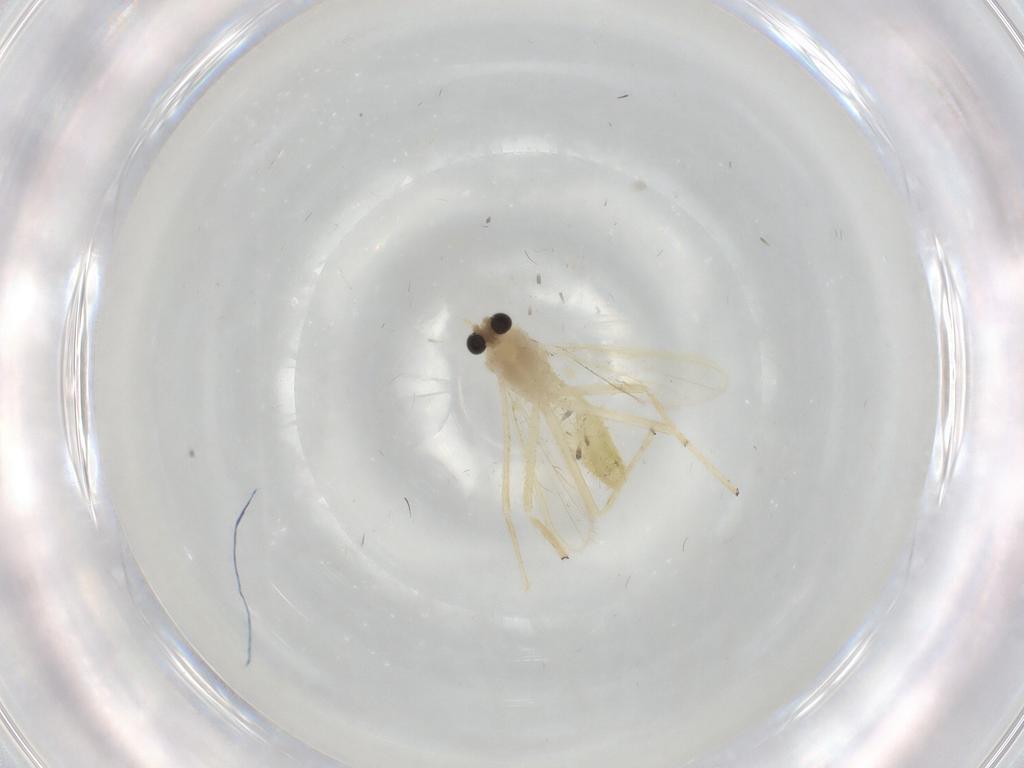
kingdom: Animalia
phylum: Arthropoda
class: Insecta
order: Diptera
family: Chironomidae
